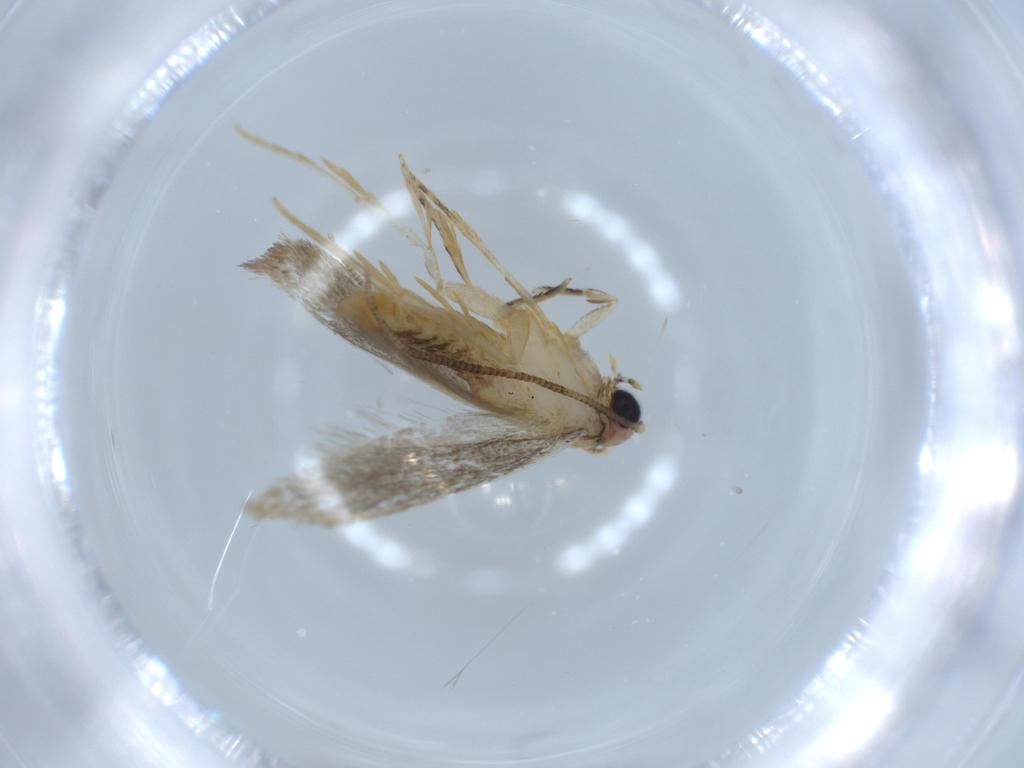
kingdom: Animalia
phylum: Arthropoda
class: Insecta
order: Lepidoptera
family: Tineidae
